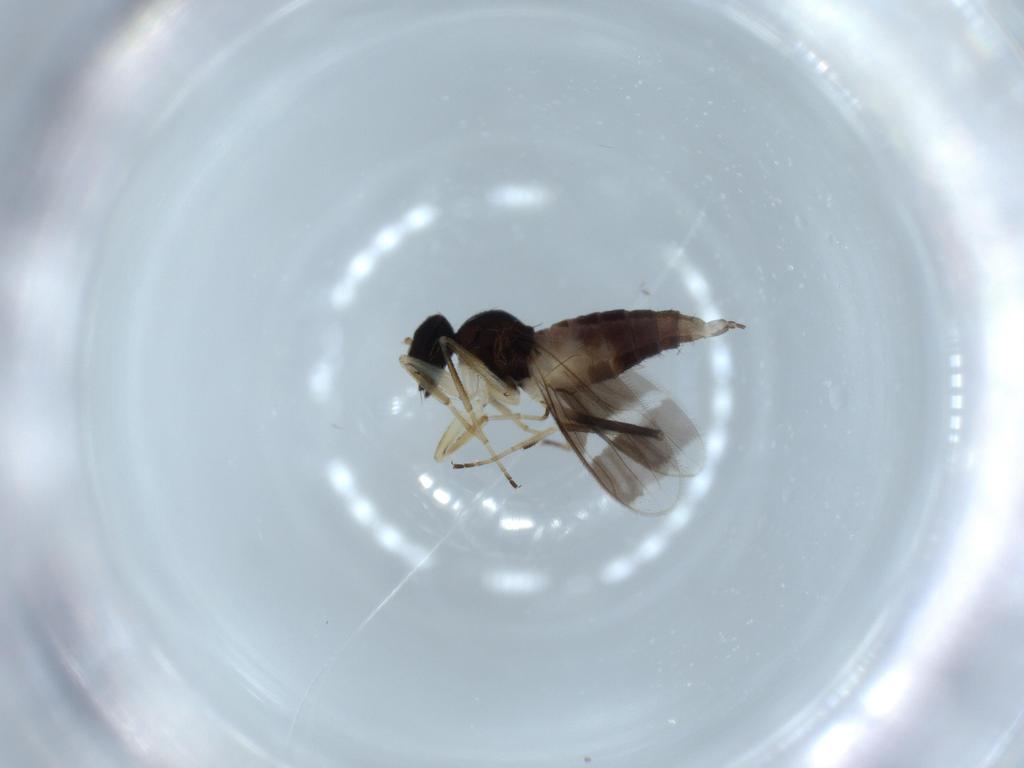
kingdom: Animalia
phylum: Arthropoda
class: Insecta
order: Diptera
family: Hybotidae
